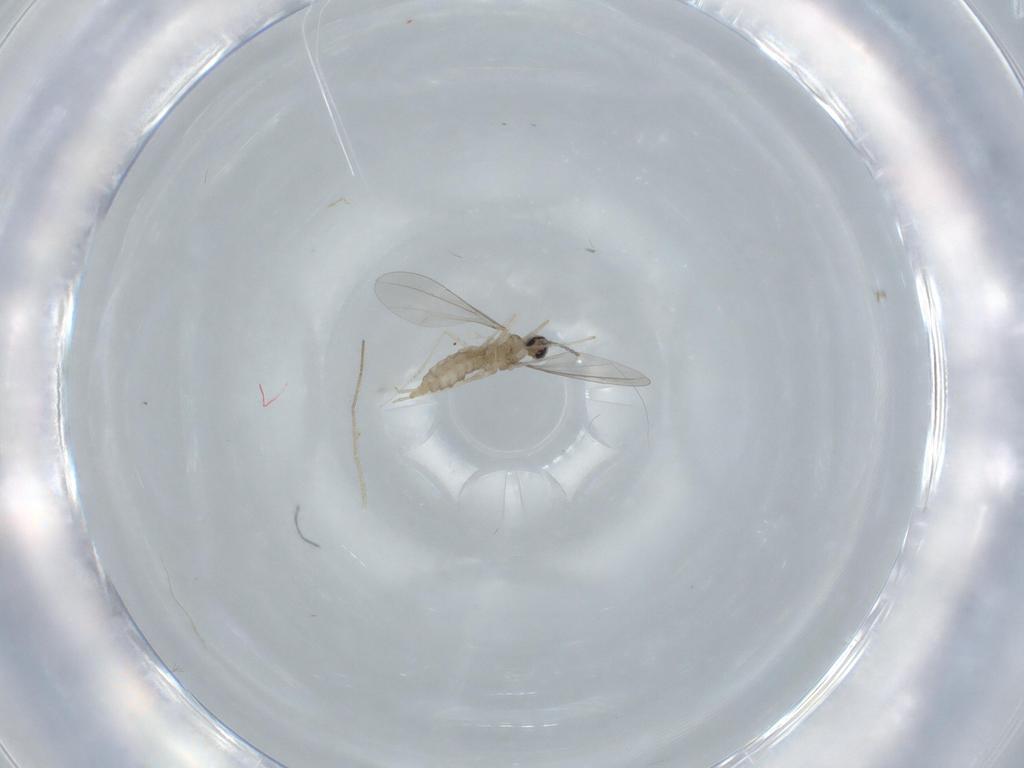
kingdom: Animalia
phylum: Arthropoda
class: Insecta
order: Diptera
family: Cecidomyiidae
